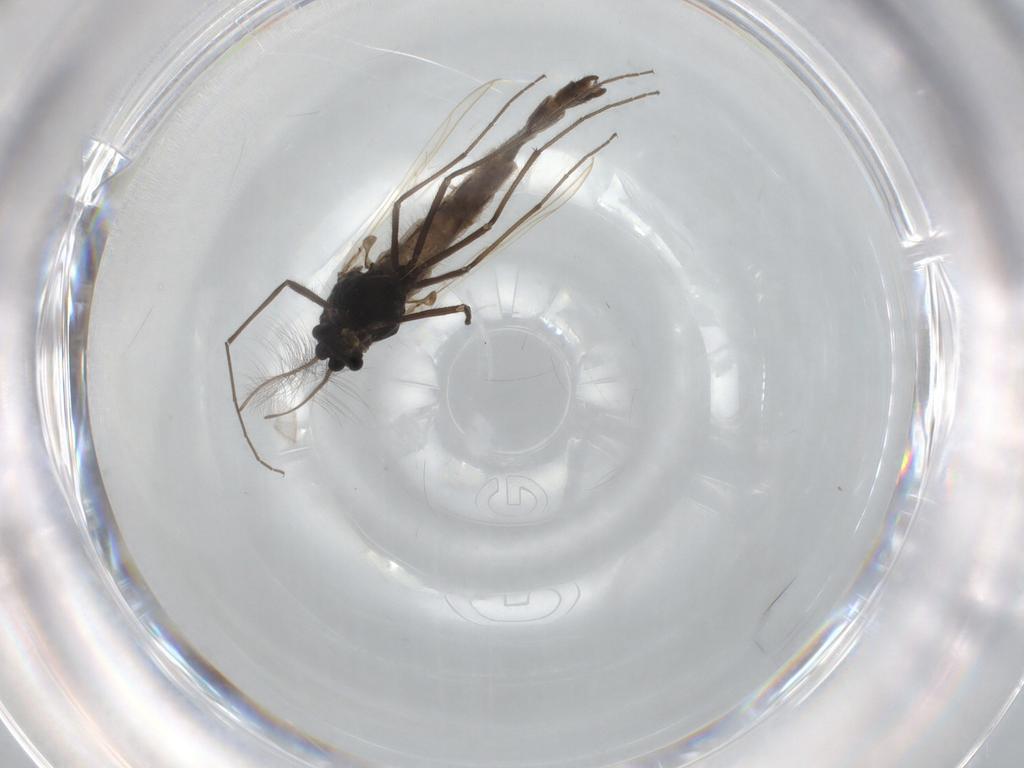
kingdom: Animalia
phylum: Arthropoda
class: Insecta
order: Diptera
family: Chironomidae
